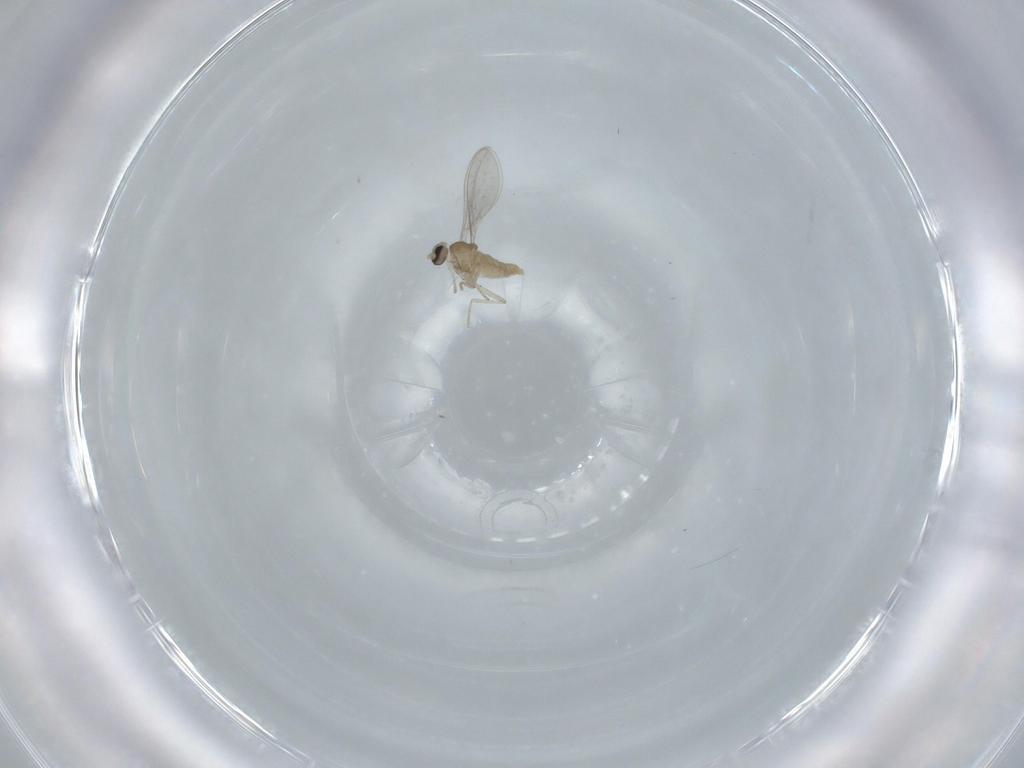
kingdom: Animalia
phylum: Arthropoda
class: Insecta
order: Diptera
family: Cecidomyiidae
